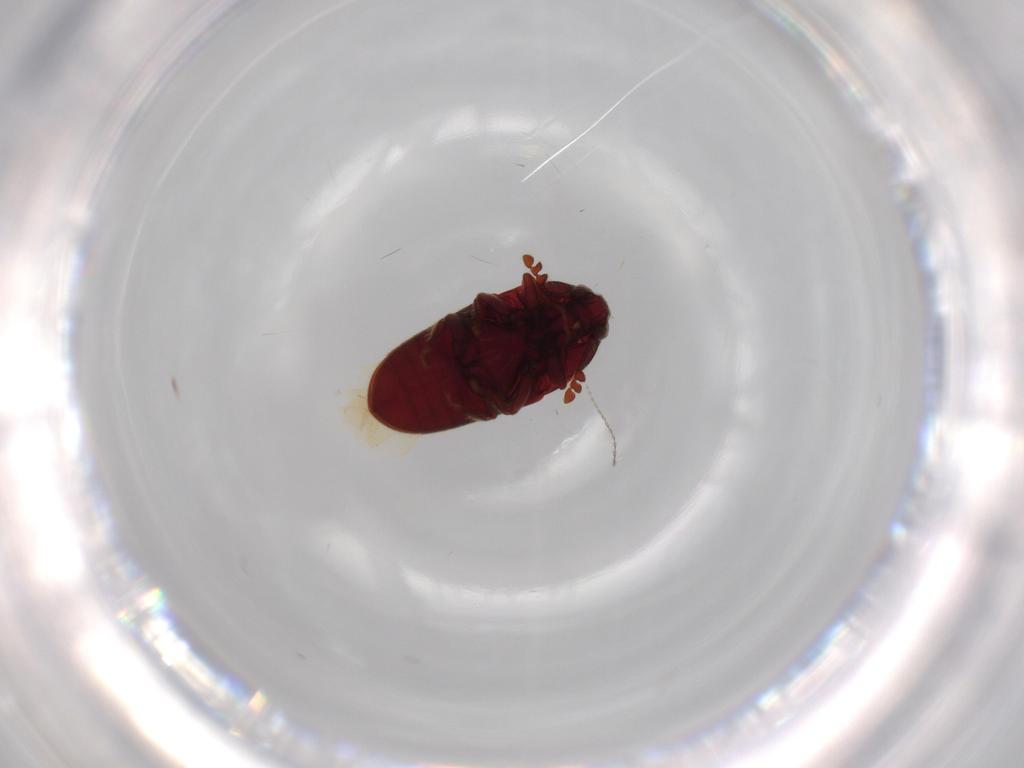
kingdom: Animalia
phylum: Arthropoda
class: Insecta
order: Coleoptera
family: Throscidae
